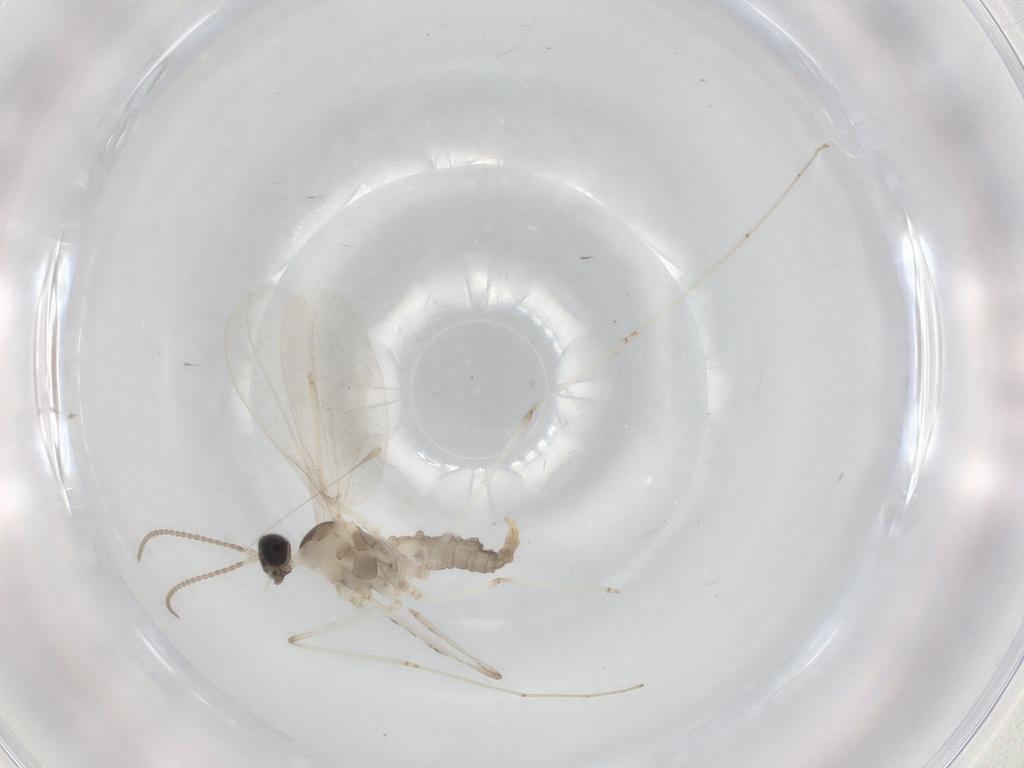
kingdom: Animalia
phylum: Arthropoda
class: Insecta
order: Diptera
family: Cecidomyiidae
